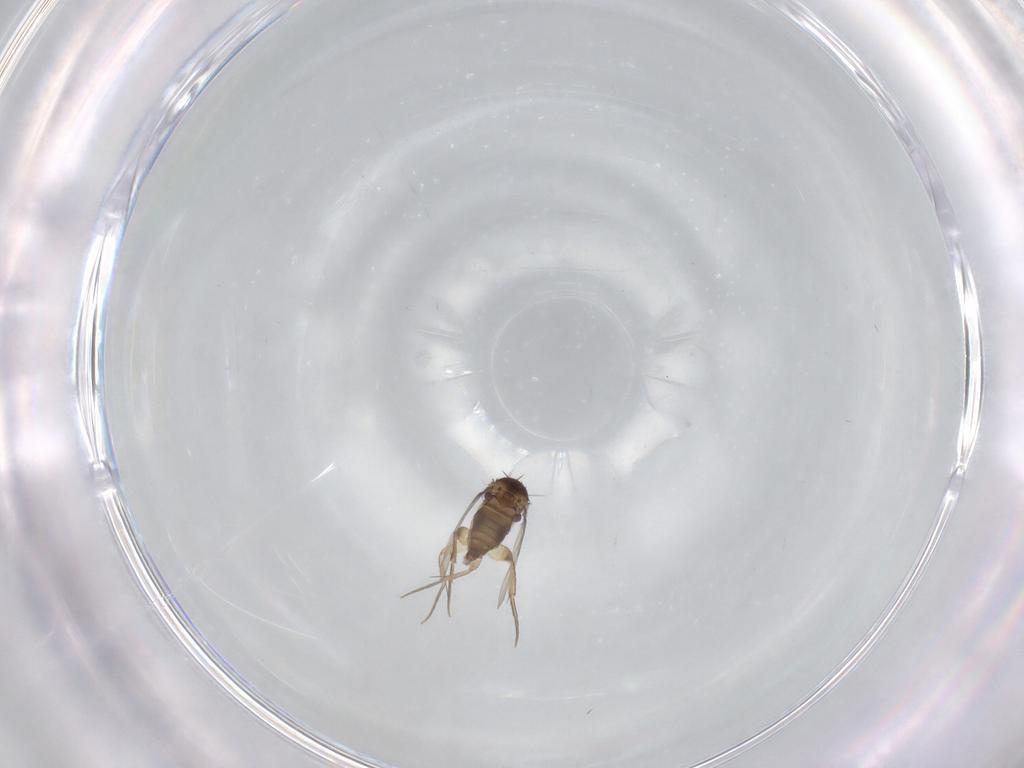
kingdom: Animalia
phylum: Arthropoda
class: Insecta
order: Diptera
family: Phoridae
